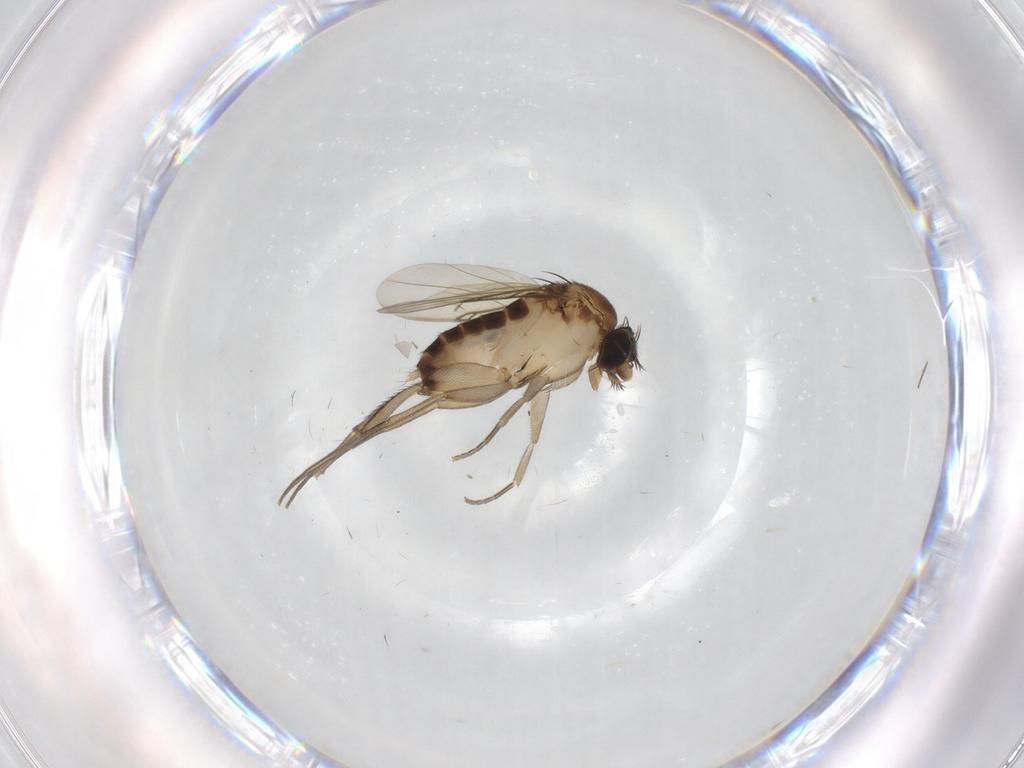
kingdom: Animalia
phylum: Arthropoda
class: Insecta
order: Diptera
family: Phoridae
